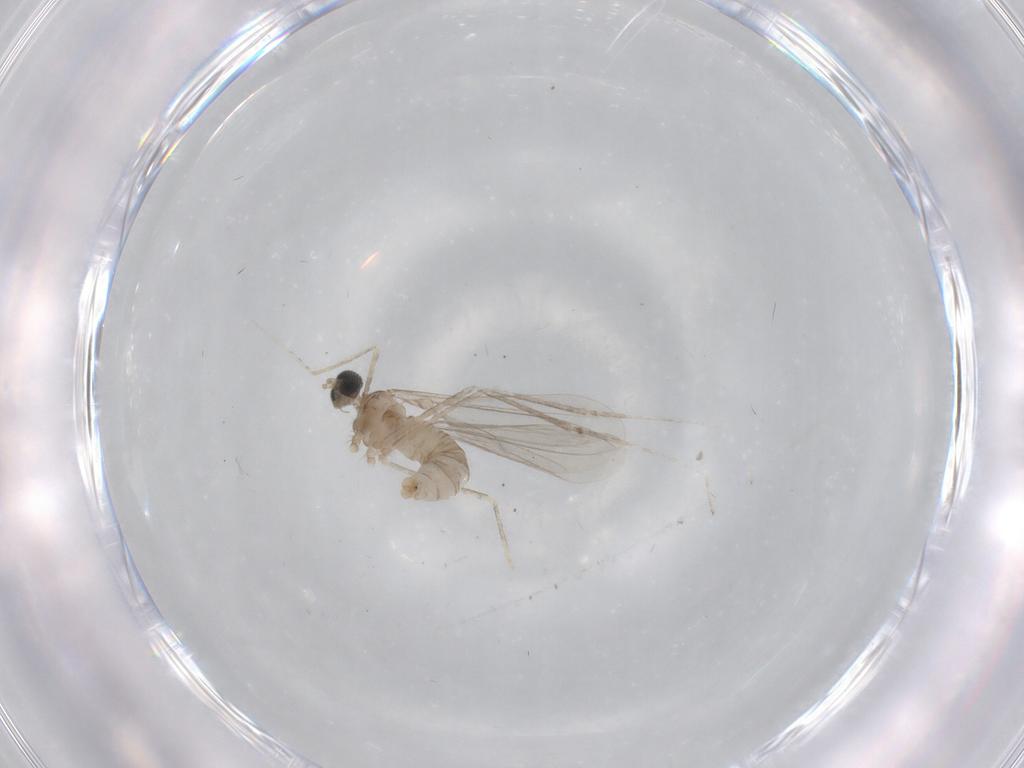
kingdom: Animalia
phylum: Arthropoda
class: Insecta
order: Diptera
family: Cecidomyiidae
